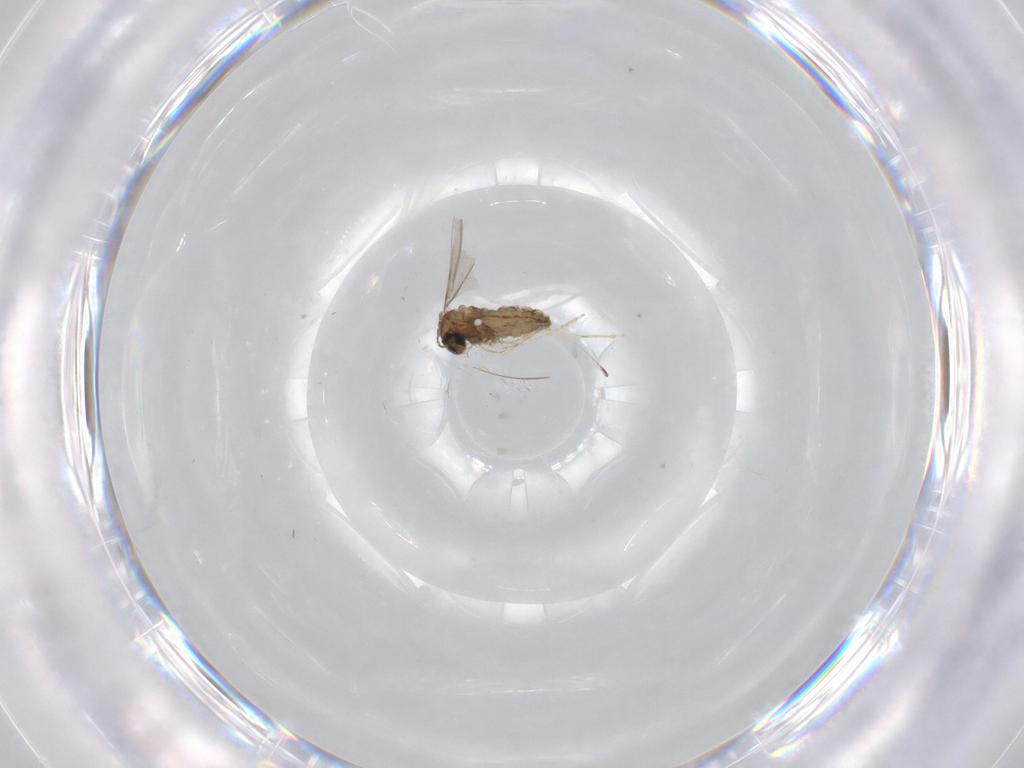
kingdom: Animalia
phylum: Arthropoda
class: Insecta
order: Diptera
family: Cecidomyiidae
